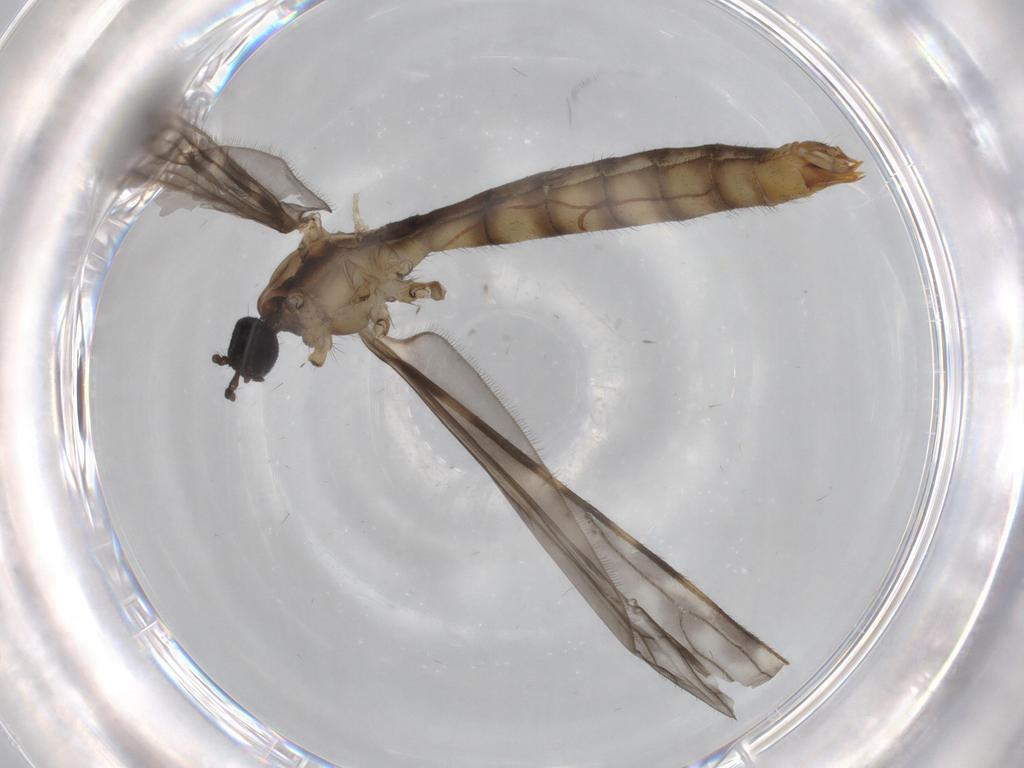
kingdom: Animalia
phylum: Arthropoda
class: Insecta
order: Diptera
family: Limoniidae
